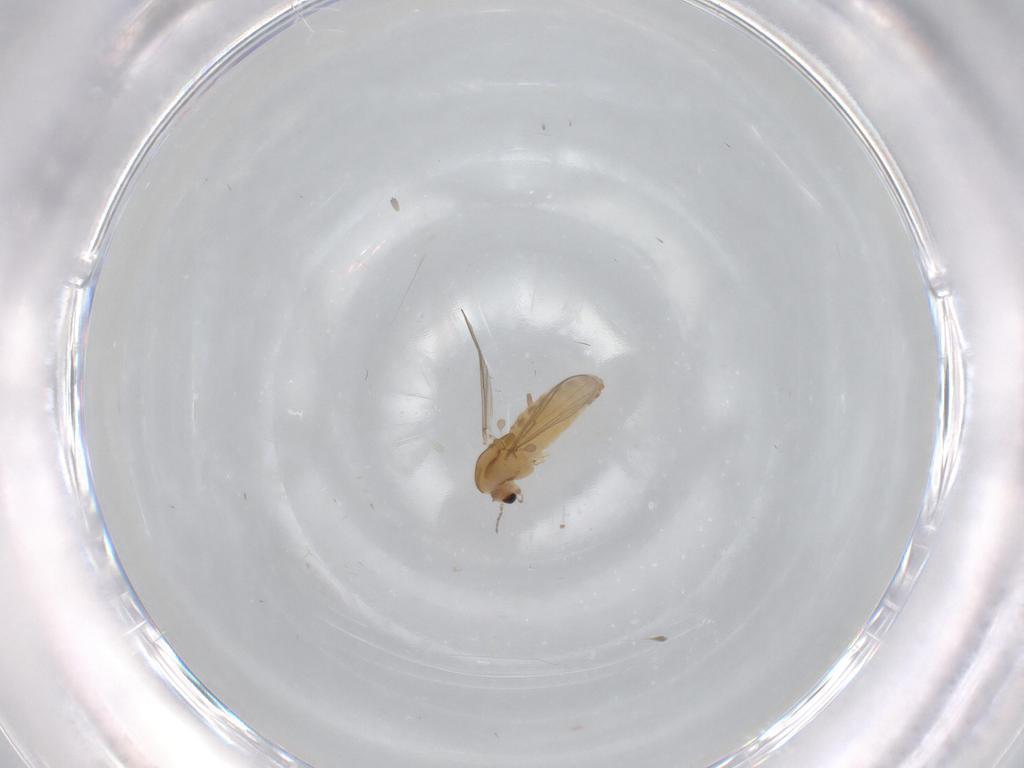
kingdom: Animalia
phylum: Arthropoda
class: Insecta
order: Diptera
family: Chironomidae
